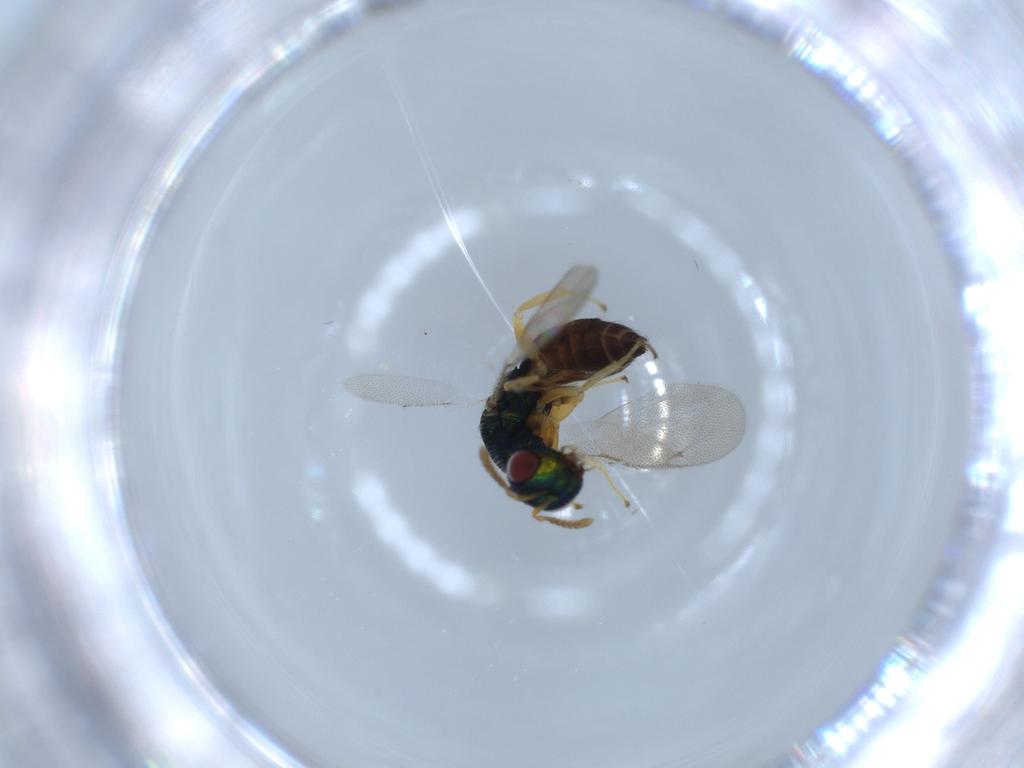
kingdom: Animalia
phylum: Arthropoda
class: Insecta
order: Hymenoptera
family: Pteromalidae
